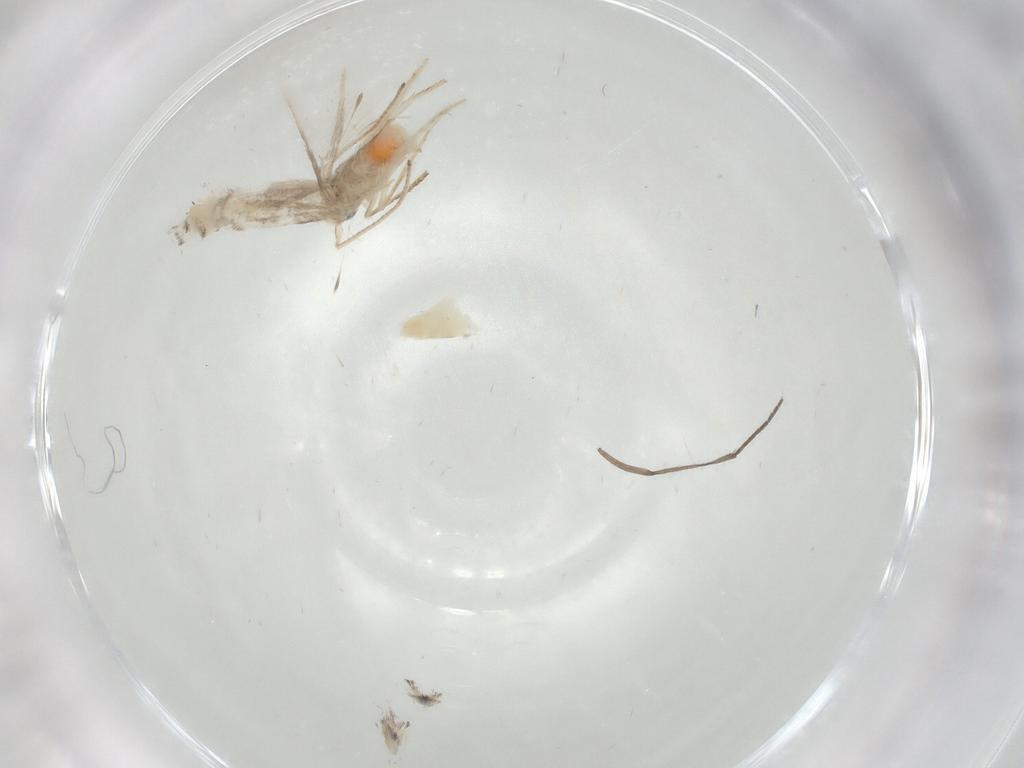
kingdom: Animalia
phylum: Arthropoda
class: Insecta
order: Lepidoptera
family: Gracillariidae
